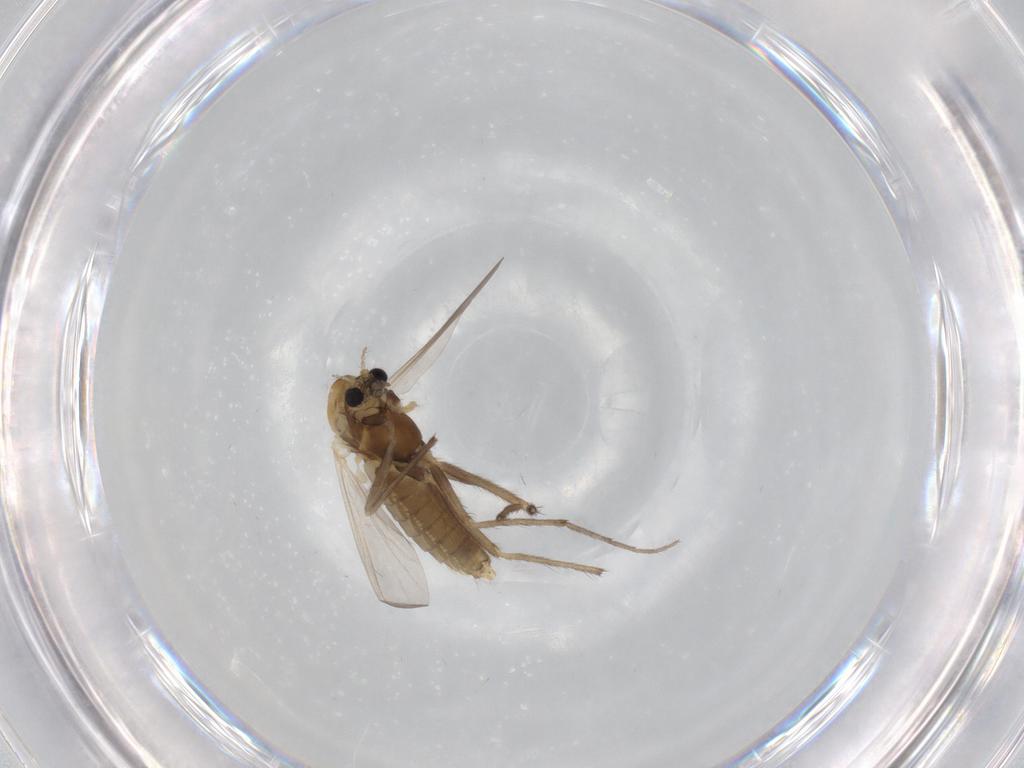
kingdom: Animalia
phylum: Arthropoda
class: Insecta
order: Diptera
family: Chironomidae
